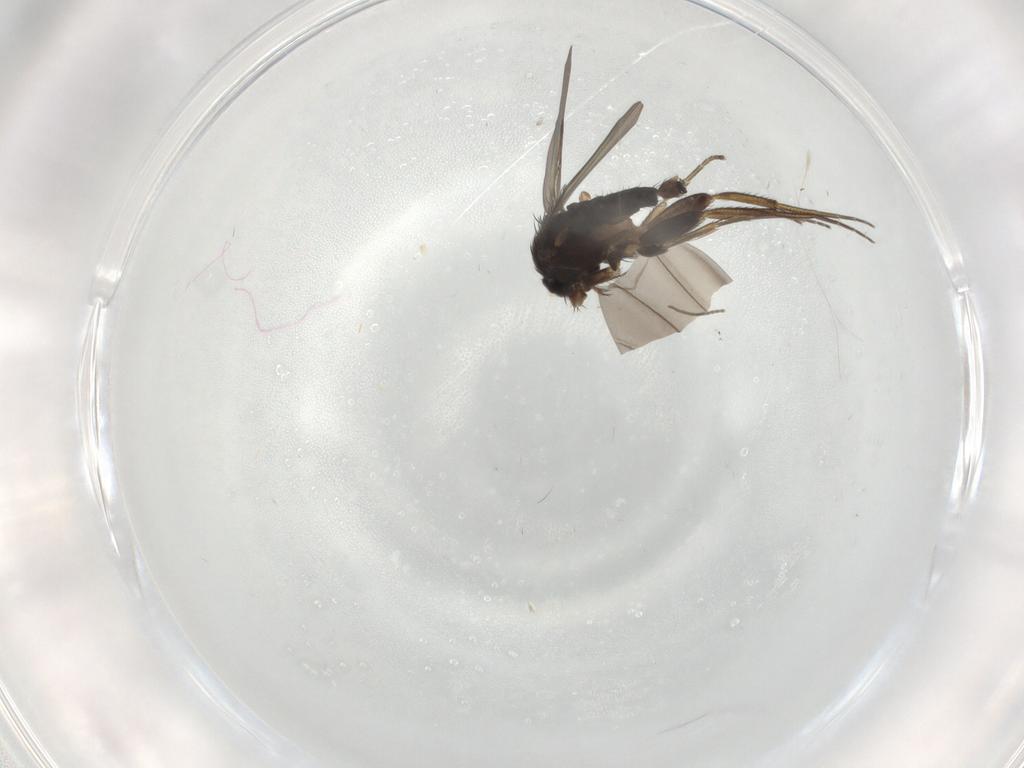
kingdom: Animalia
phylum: Arthropoda
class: Insecta
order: Diptera
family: Phoridae
